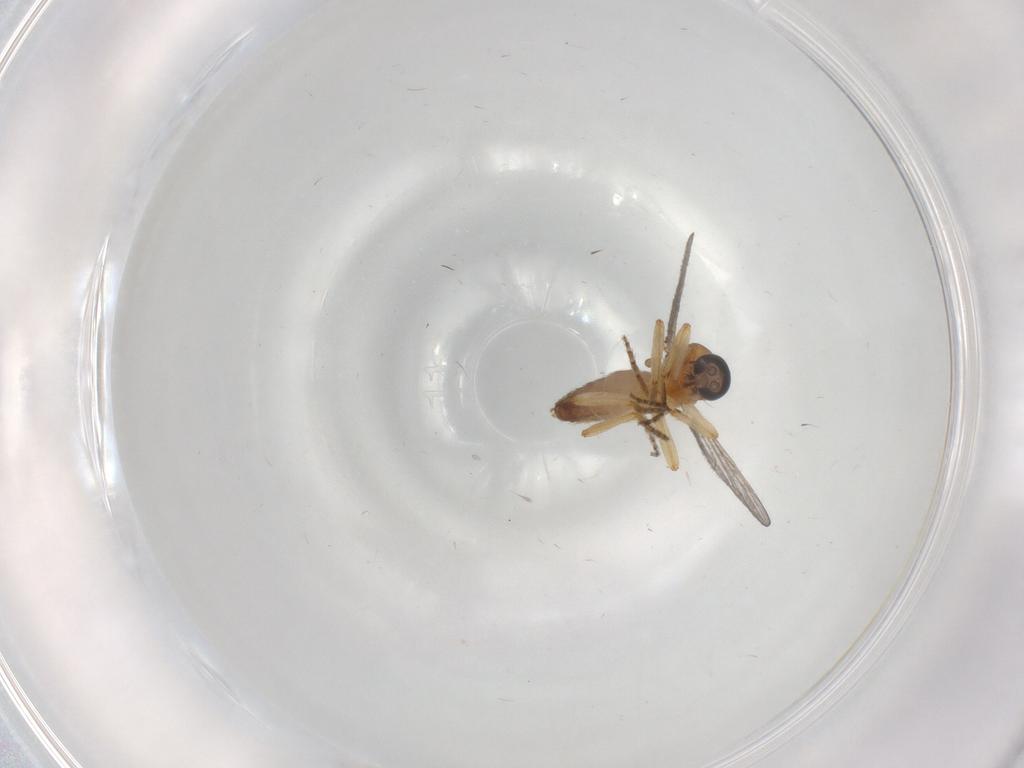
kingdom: Animalia
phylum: Arthropoda
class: Insecta
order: Diptera
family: Ceratopogonidae
